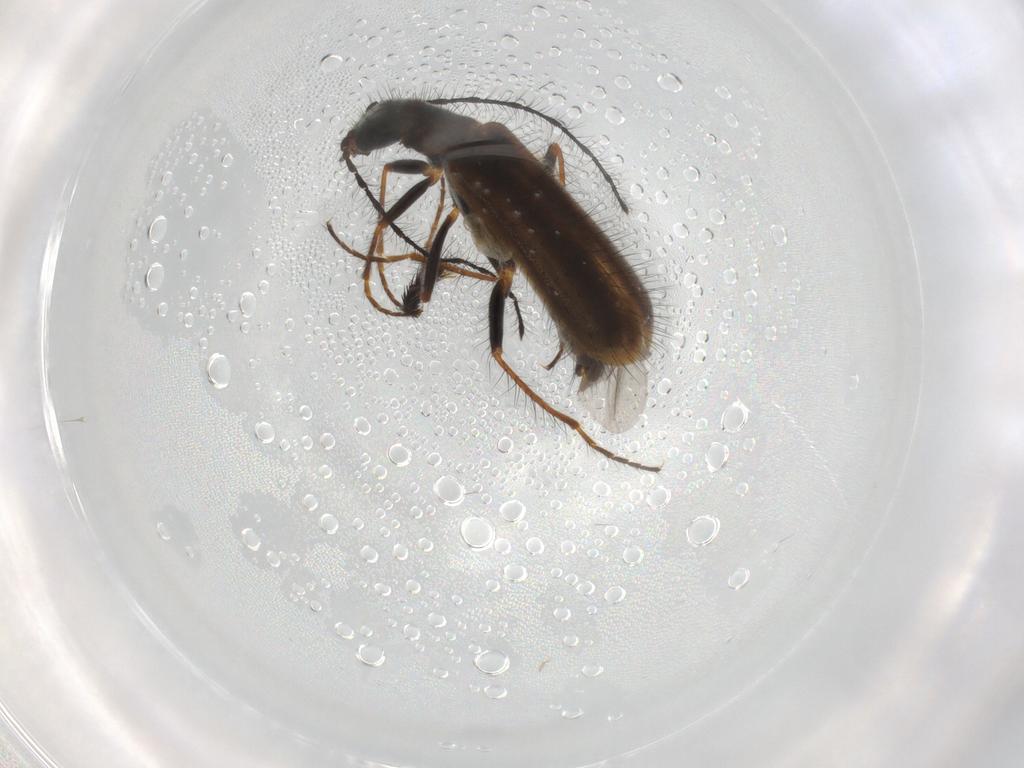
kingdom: Animalia
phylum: Arthropoda
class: Insecta
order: Coleoptera
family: Melyridae
